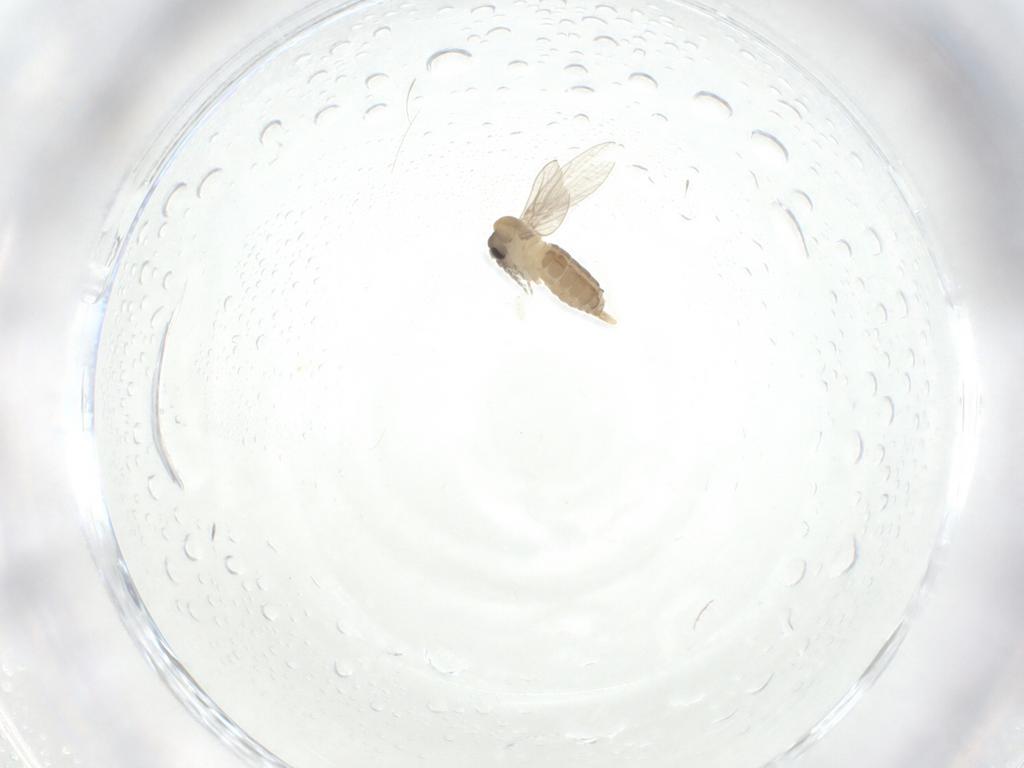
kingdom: Animalia
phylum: Arthropoda
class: Insecta
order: Diptera
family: Psychodidae
